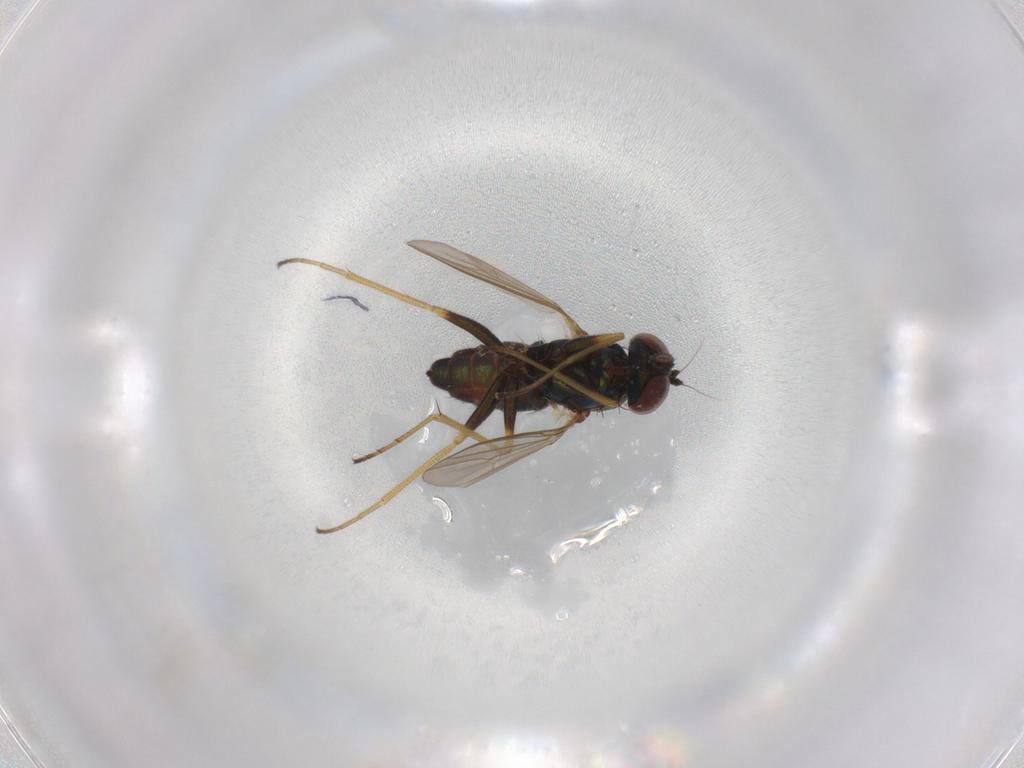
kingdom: Animalia
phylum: Arthropoda
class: Insecta
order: Diptera
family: Dolichopodidae
